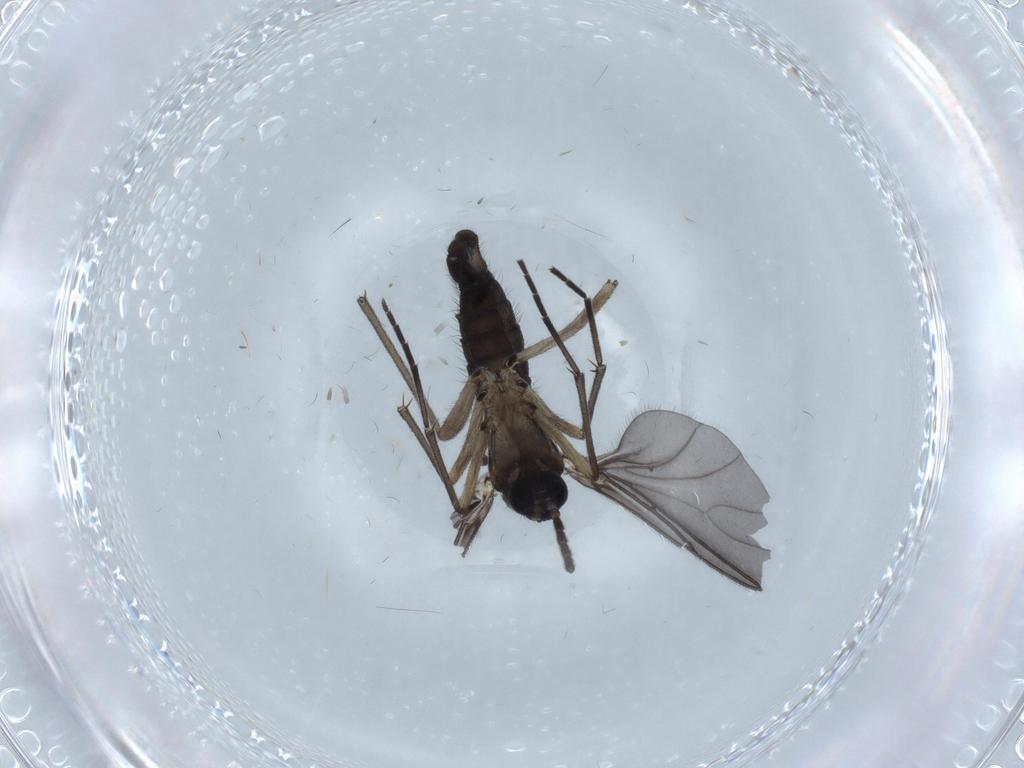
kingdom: Animalia
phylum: Arthropoda
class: Insecta
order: Diptera
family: Sciaridae
